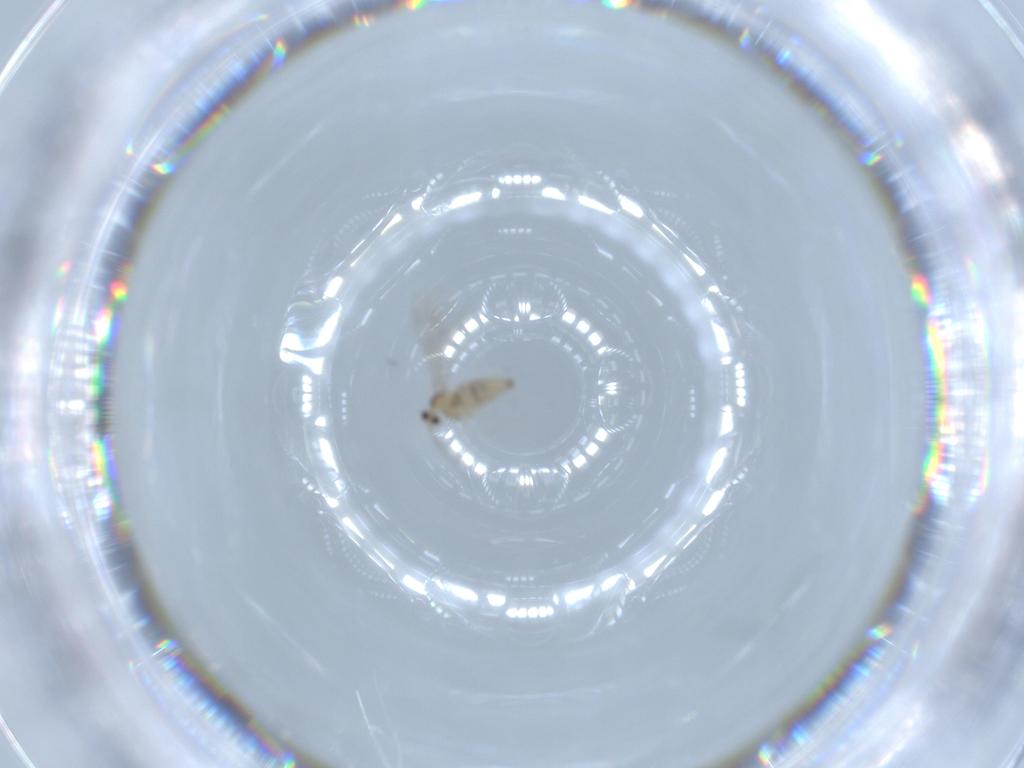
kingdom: Animalia
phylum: Arthropoda
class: Insecta
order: Diptera
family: Cecidomyiidae
